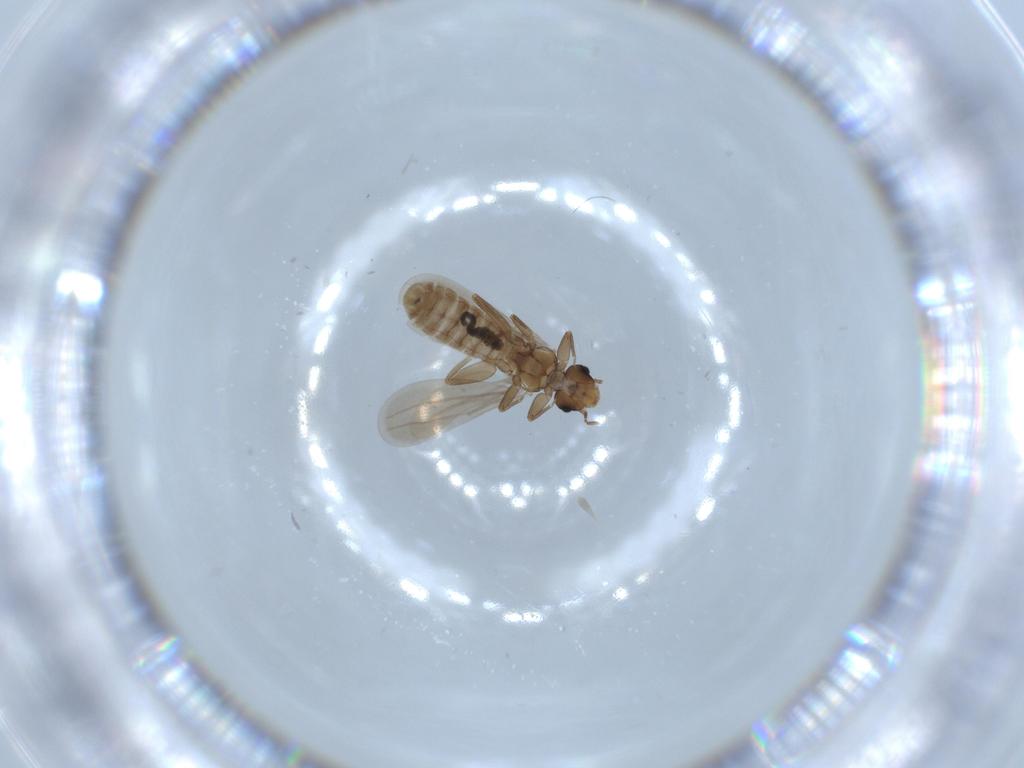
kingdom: Animalia
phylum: Arthropoda
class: Insecta
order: Psocodea
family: Liposcelididae
